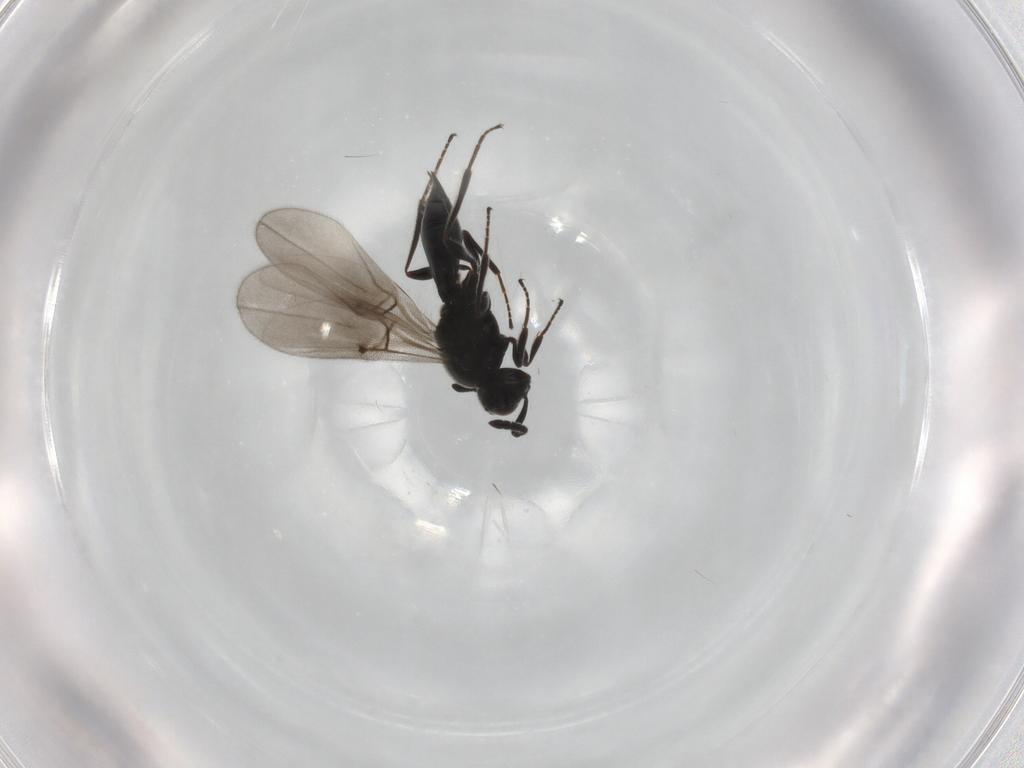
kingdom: Animalia
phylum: Arthropoda
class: Insecta
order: Hymenoptera
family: Platygastridae
